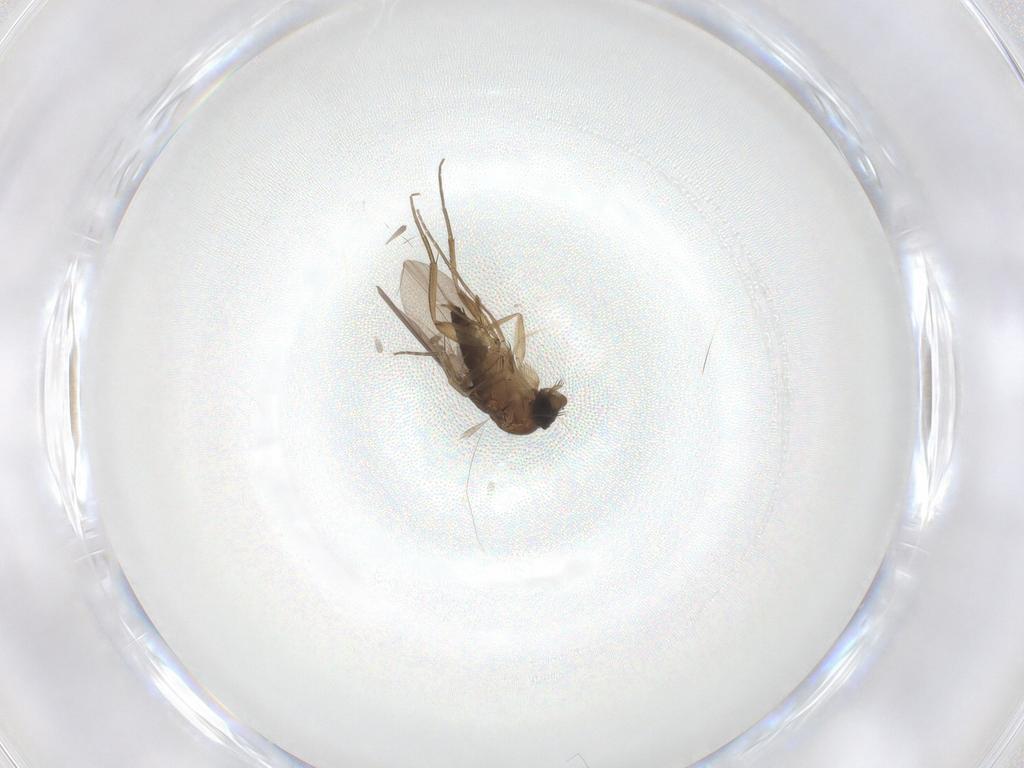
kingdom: Animalia
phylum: Arthropoda
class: Insecta
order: Diptera
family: Phoridae
